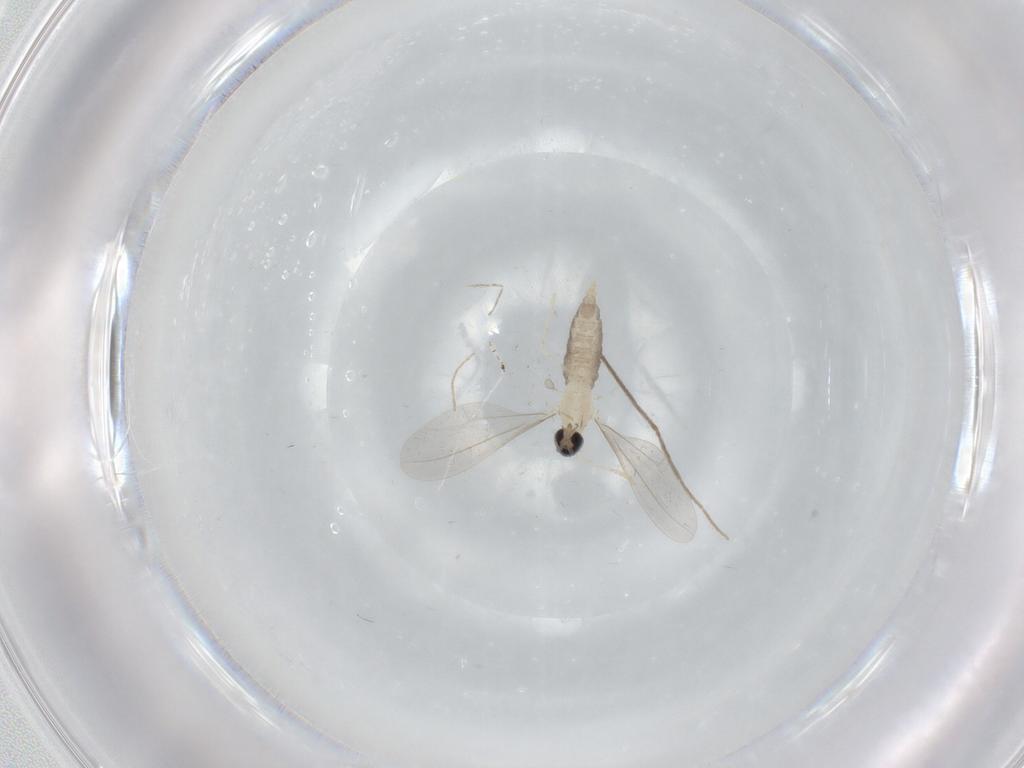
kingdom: Animalia
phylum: Arthropoda
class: Insecta
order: Diptera
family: Cecidomyiidae
